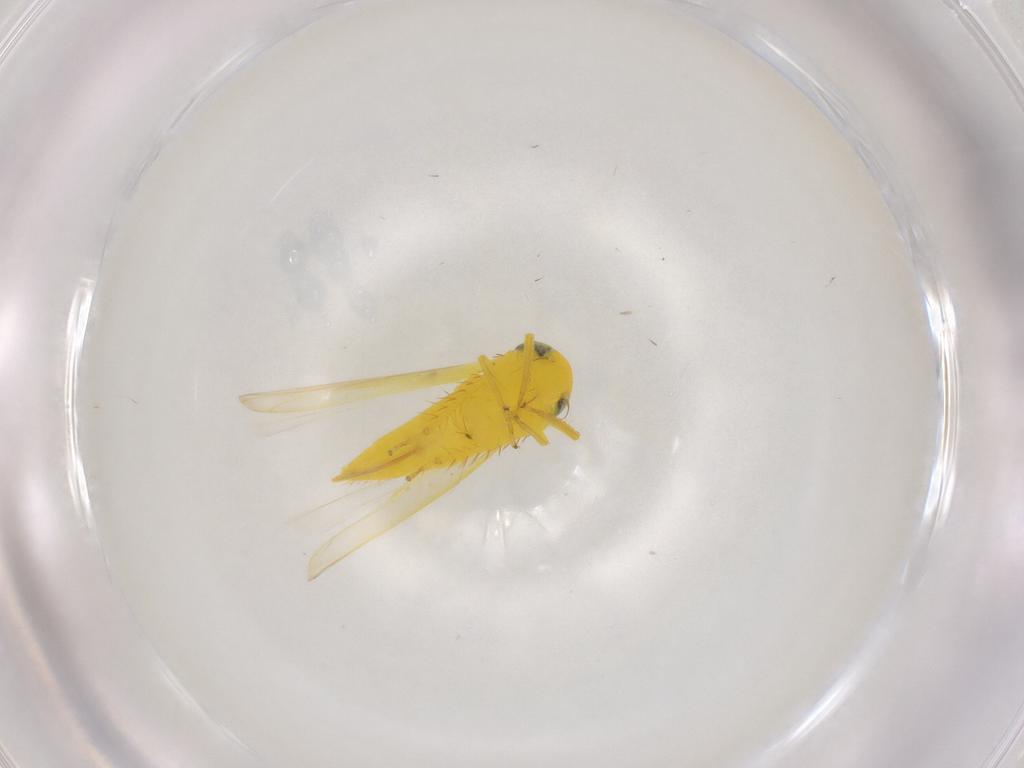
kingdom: Animalia
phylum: Arthropoda
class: Insecta
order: Hemiptera
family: Cicadellidae
